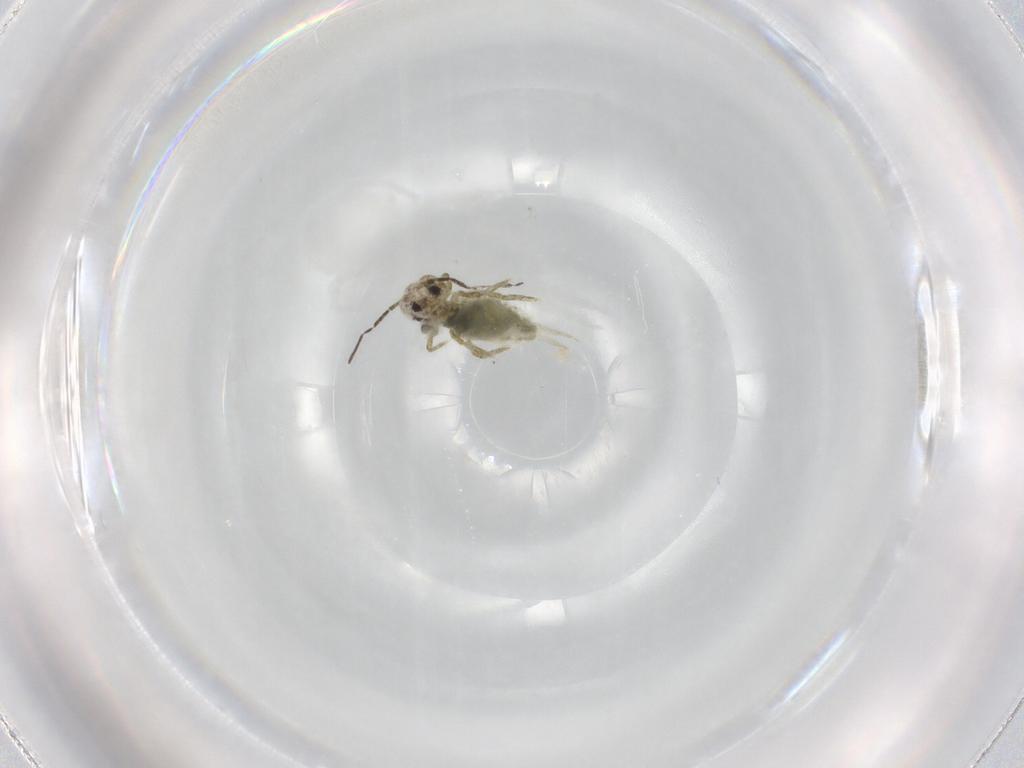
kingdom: Animalia
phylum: Arthropoda
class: Collembola
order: Symphypleona
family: Sminthuridae
